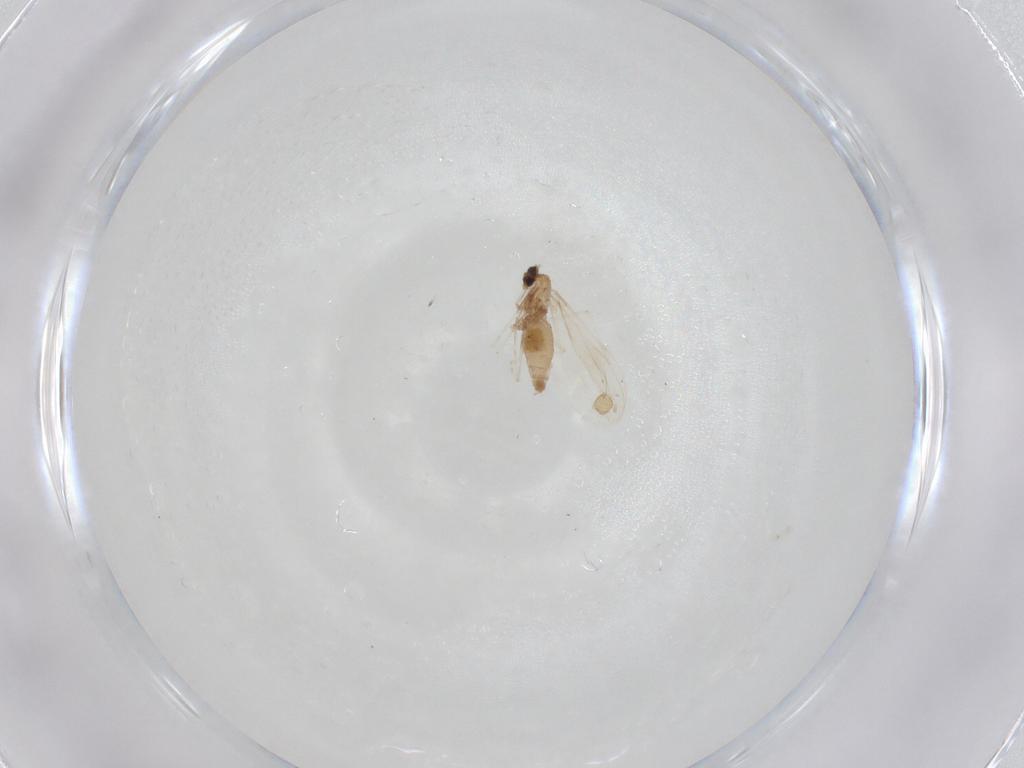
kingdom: Animalia
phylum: Arthropoda
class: Insecta
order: Diptera
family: Cecidomyiidae
